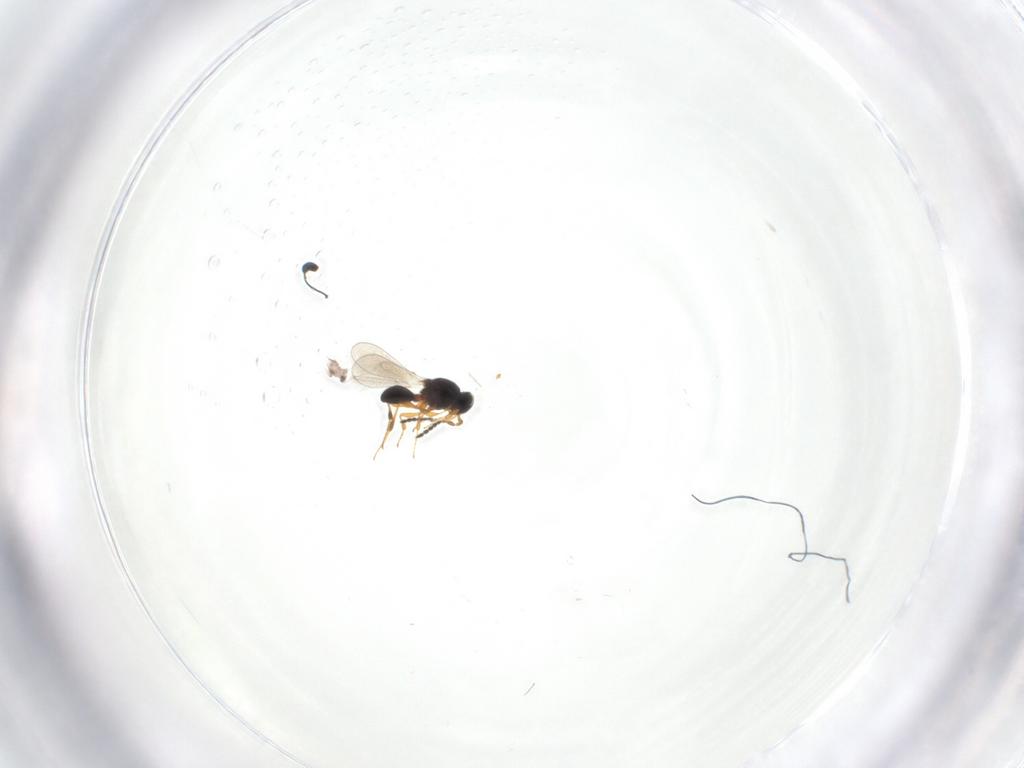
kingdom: Animalia
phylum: Arthropoda
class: Insecta
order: Hymenoptera
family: Platygastridae
